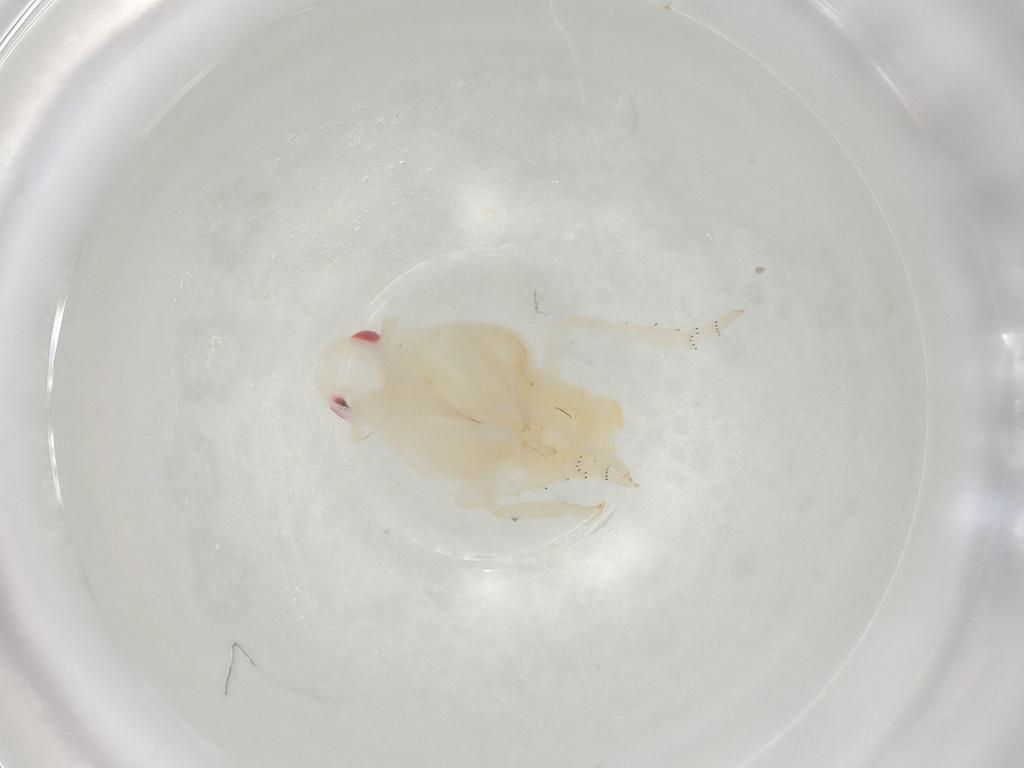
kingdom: Animalia
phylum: Arthropoda
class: Insecta
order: Hemiptera
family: Flatidae
